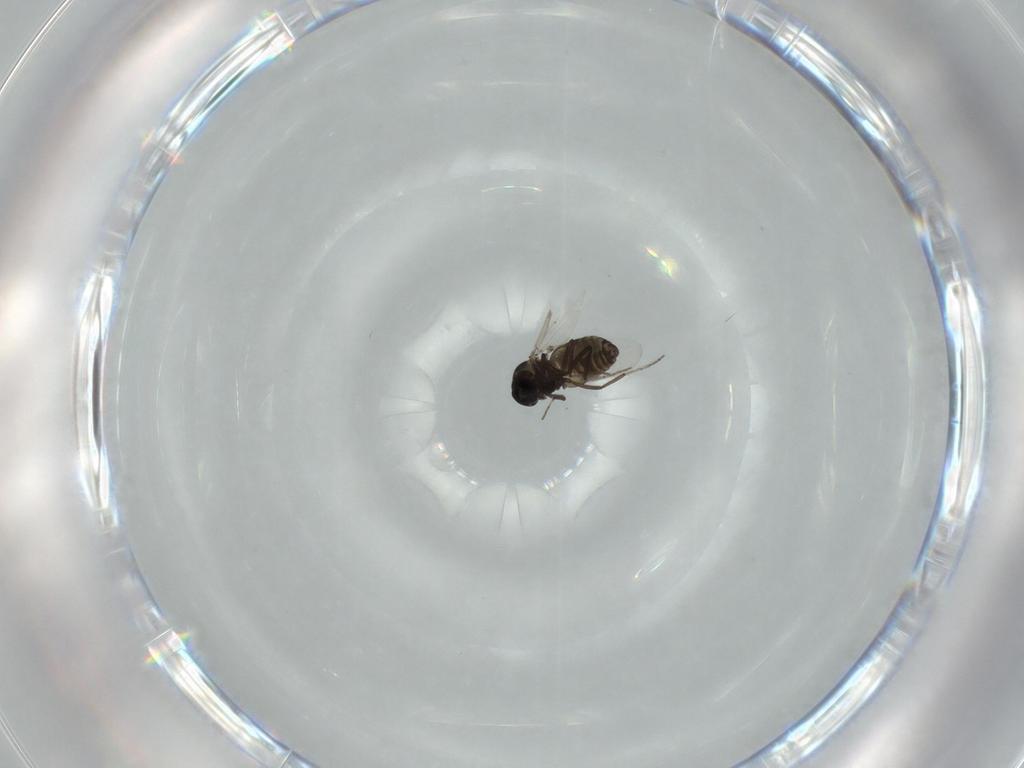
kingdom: Animalia
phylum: Arthropoda
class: Insecta
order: Diptera
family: Ceratopogonidae
